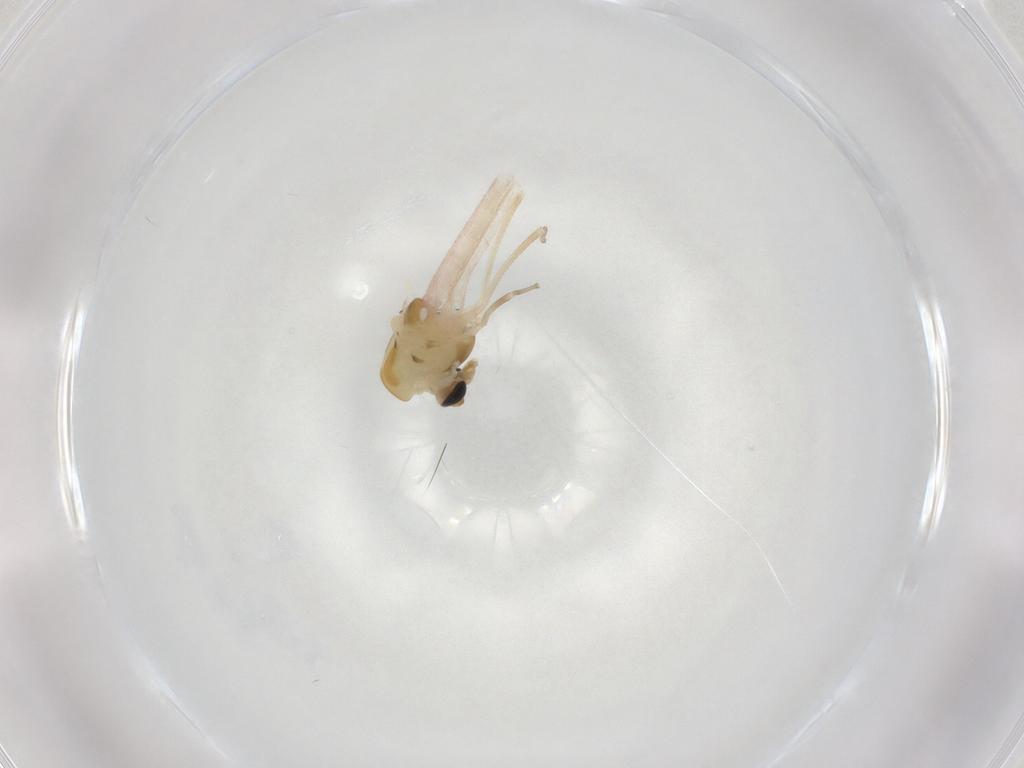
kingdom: Animalia
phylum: Arthropoda
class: Insecta
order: Diptera
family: Chironomidae
